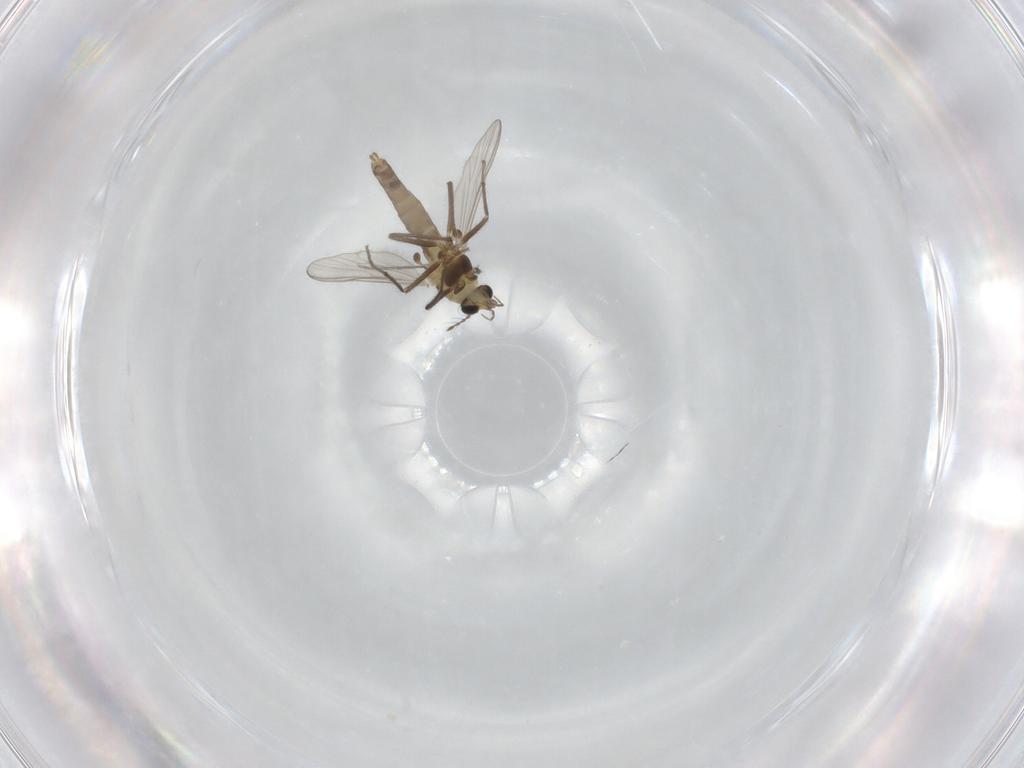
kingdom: Animalia
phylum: Arthropoda
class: Insecta
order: Diptera
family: Chironomidae
